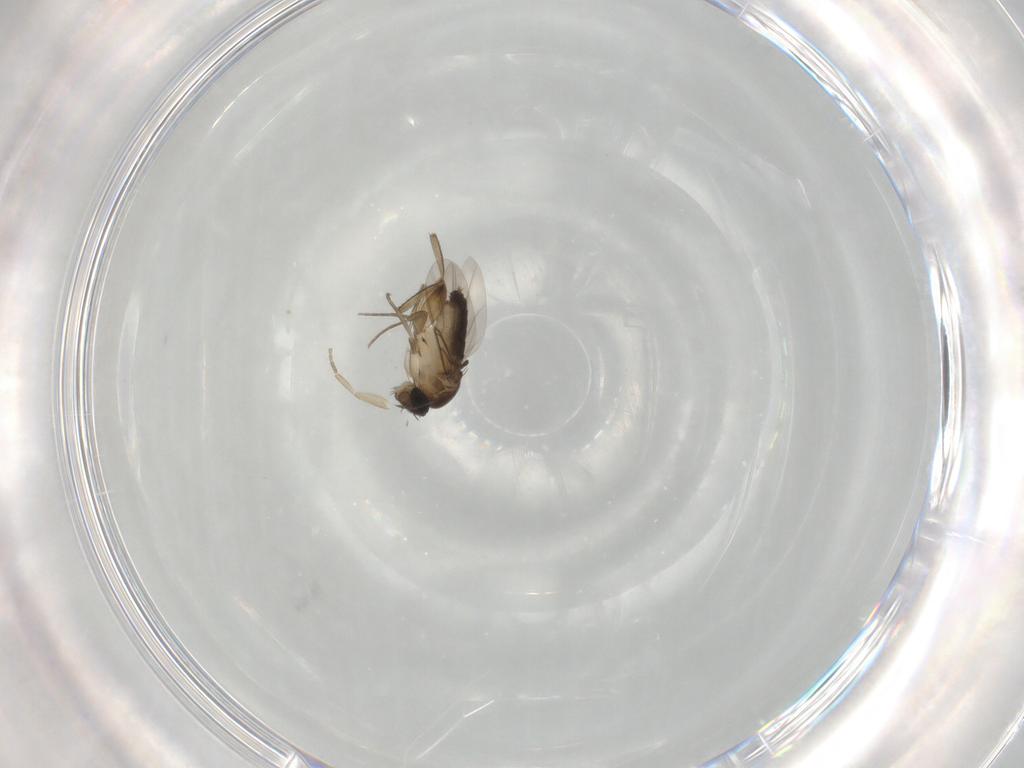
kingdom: Animalia
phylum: Arthropoda
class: Insecta
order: Diptera
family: Phoridae
